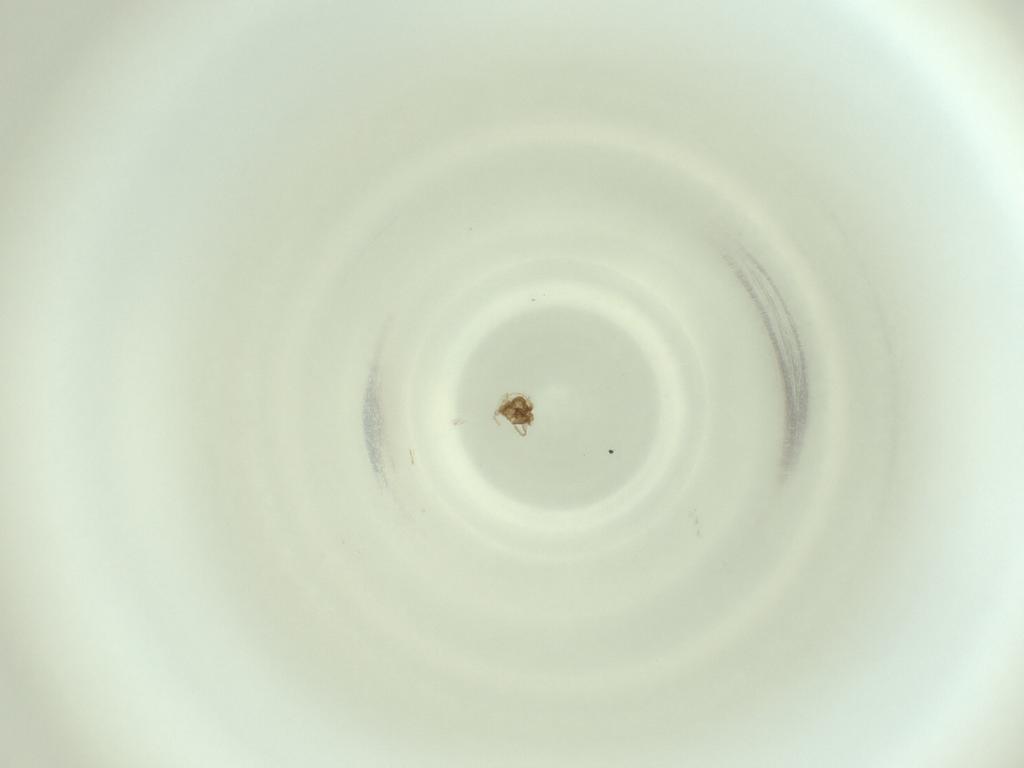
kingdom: Animalia
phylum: Arthropoda
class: Insecta
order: Diptera
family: Cecidomyiidae
